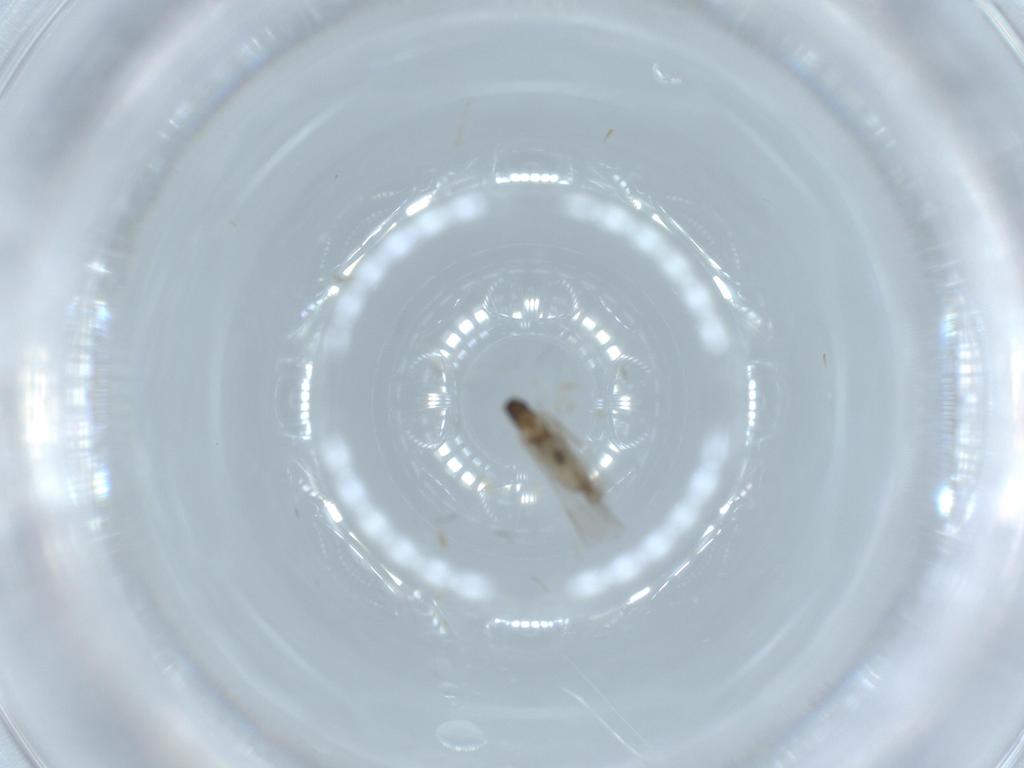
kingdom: Animalia
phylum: Arthropoda
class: Insecta
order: Diptera
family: Cecidomyiidae
